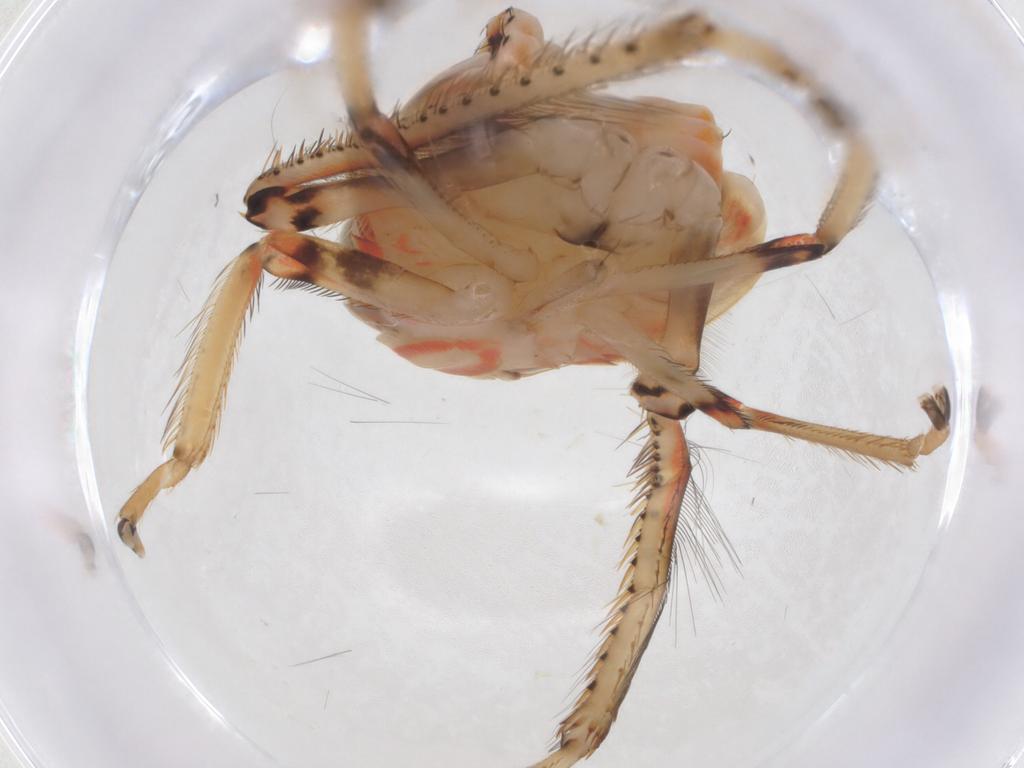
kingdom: Animalia
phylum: Arthropoda
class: Insecta
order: Hemiptera
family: Cicadellidae
